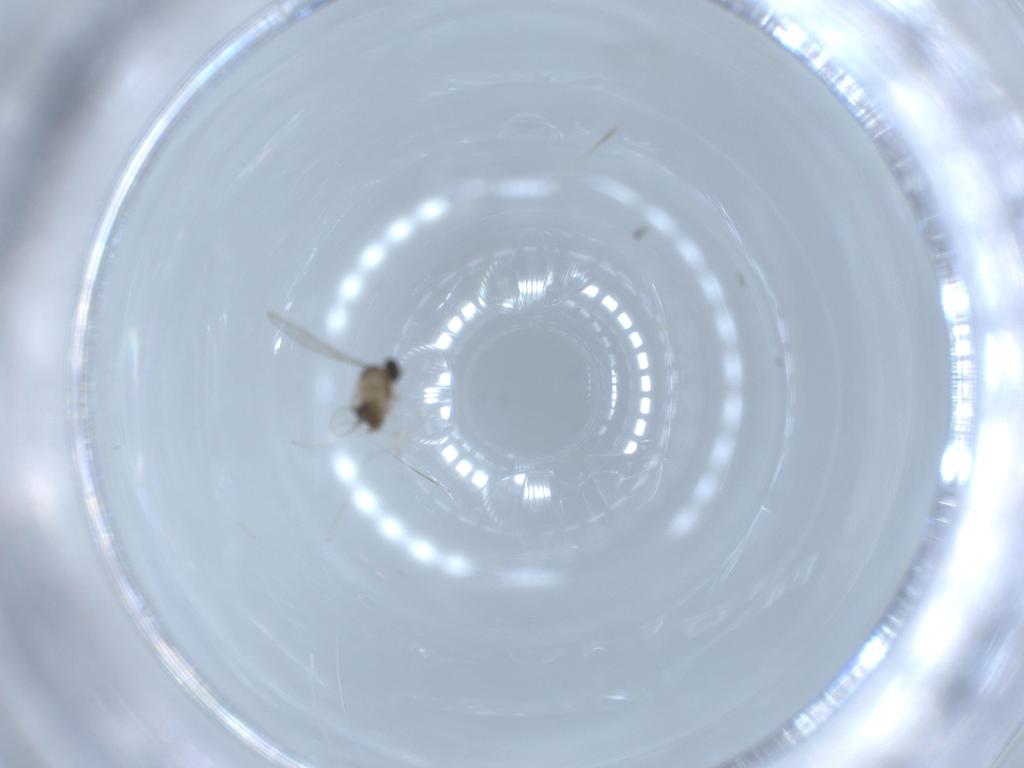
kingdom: Animalia
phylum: Arthropoda
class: Insecta
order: Diptera
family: Cecidomyiidae
